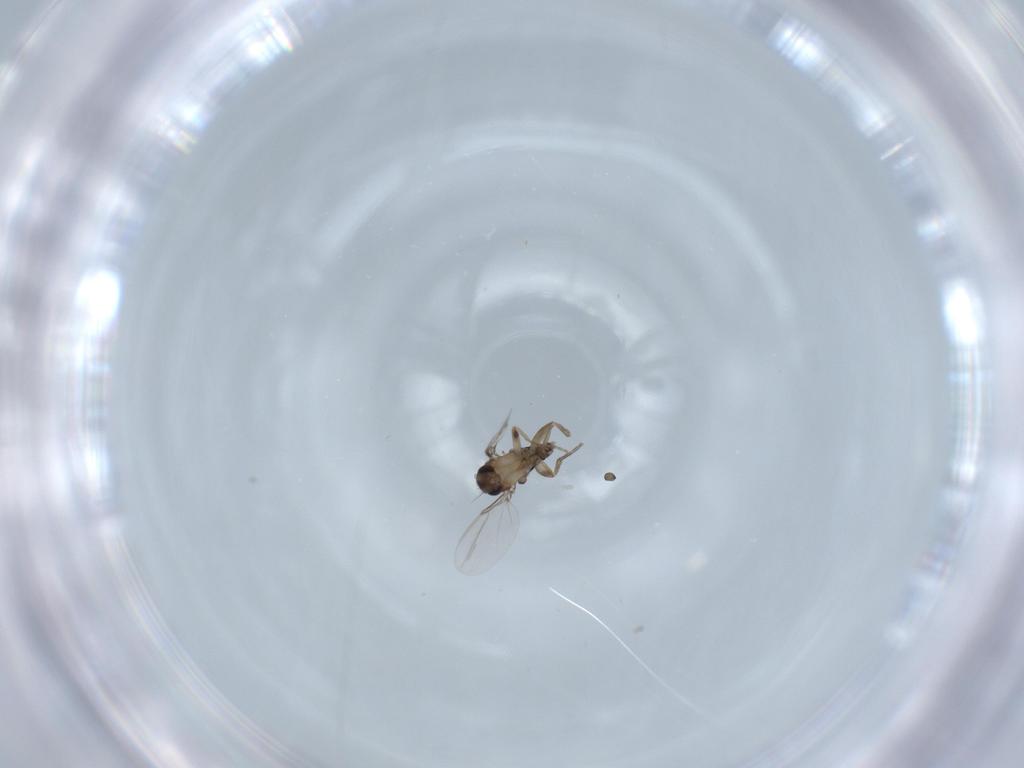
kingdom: Animalia
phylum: Arthropoda
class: Insecta
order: Diptera
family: Phoridae
